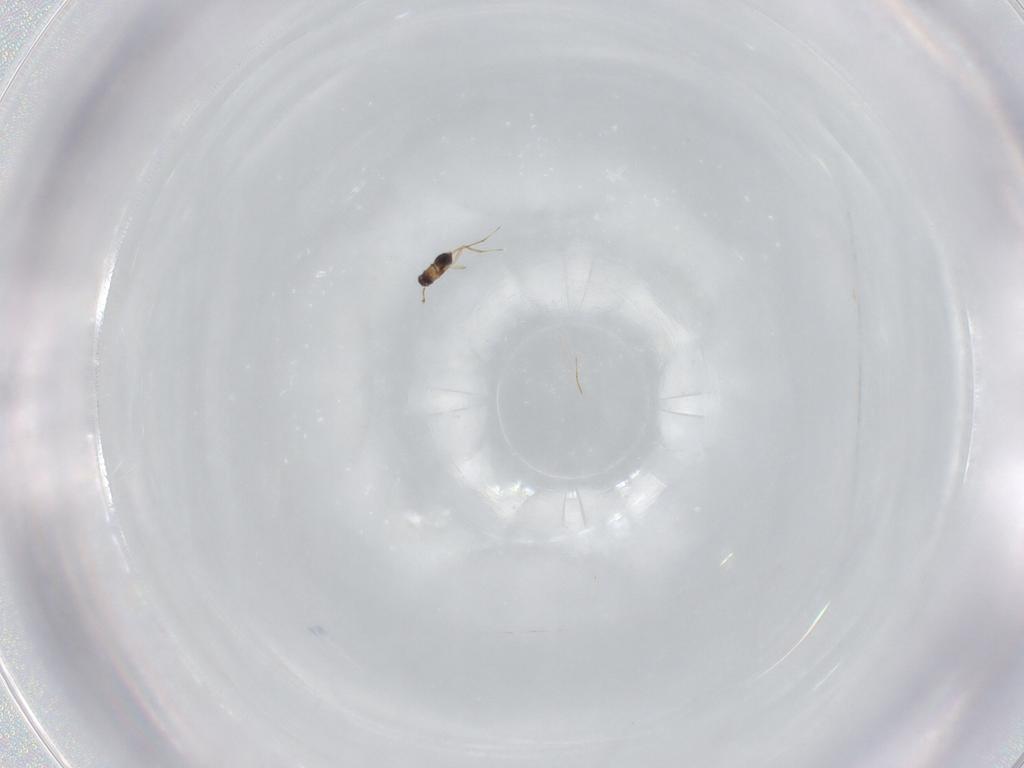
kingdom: Animalia
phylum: Arthropoda
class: Insecta
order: Hymenoptera
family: Mymaridae
